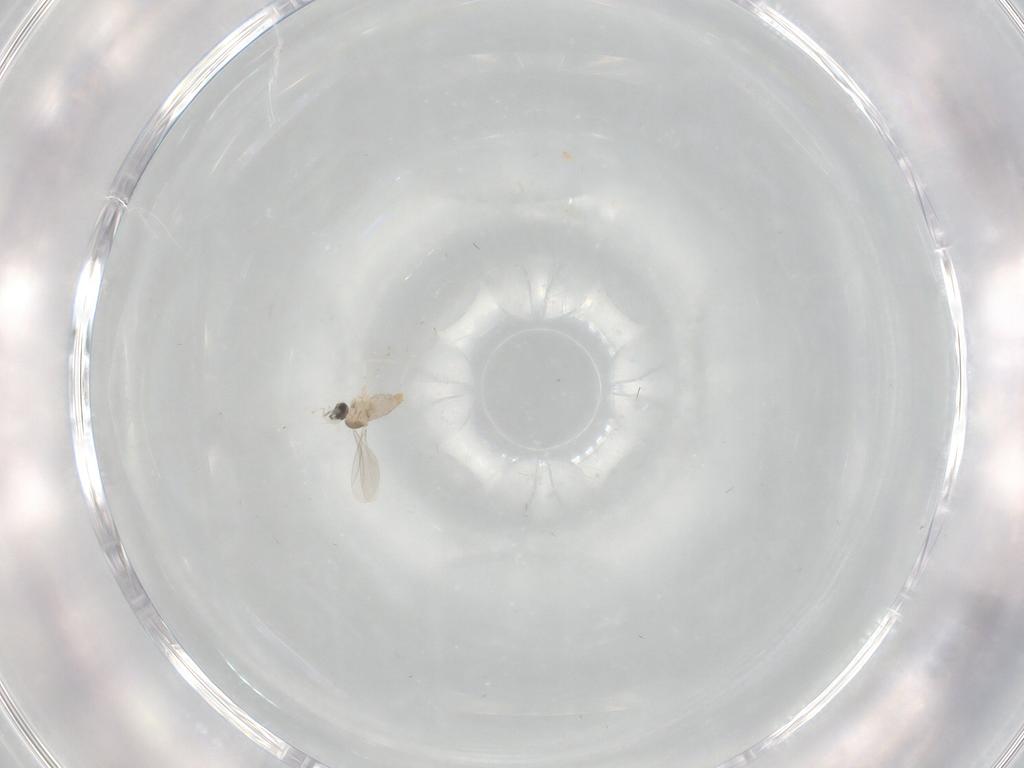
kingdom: Animalia
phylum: Arthropoda
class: Insecta
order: Diptera
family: Cecidomyiidae
